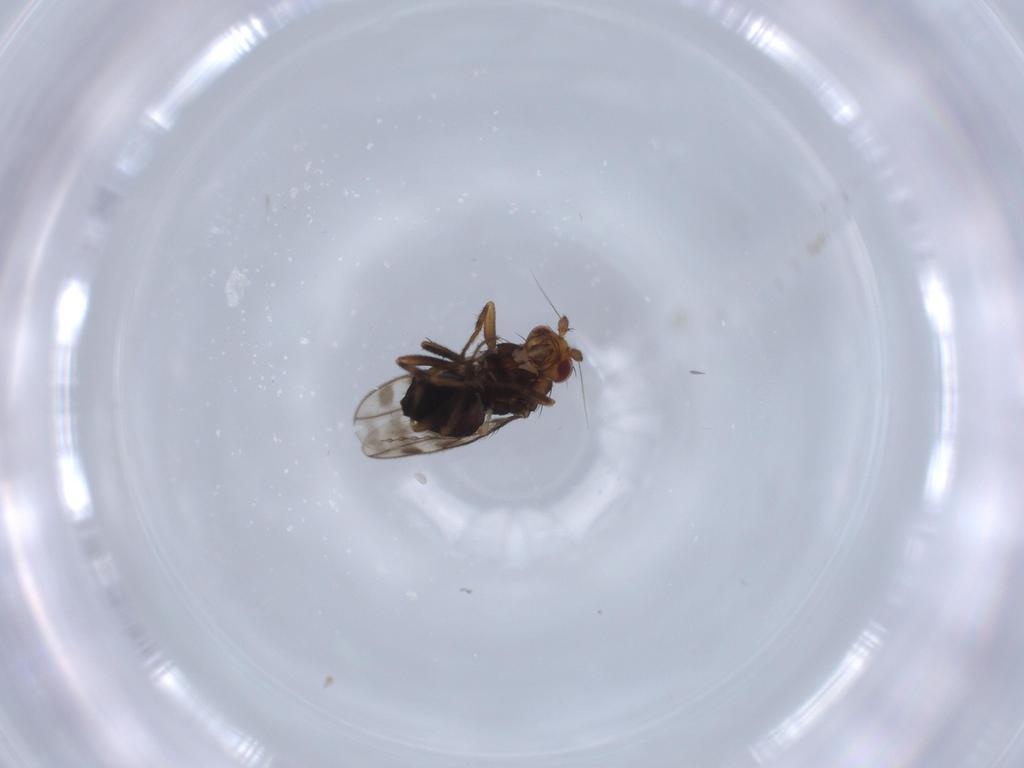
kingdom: Animalia
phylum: Arthropoda
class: Insecta
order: Diptera
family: Sphaeroceridae
